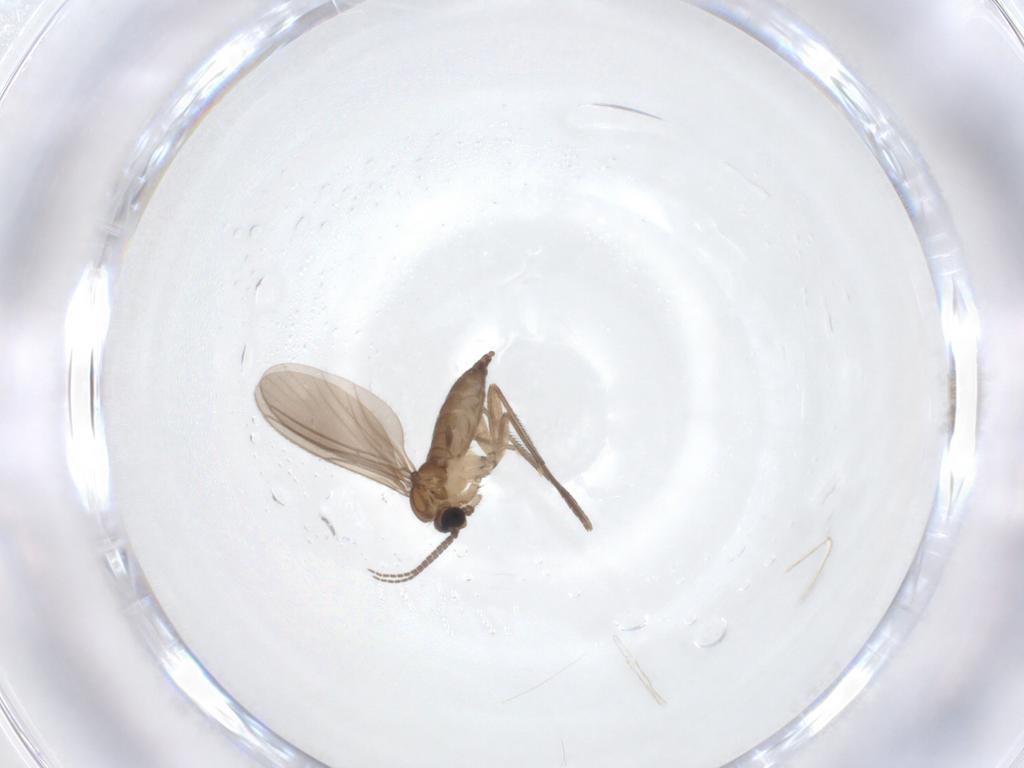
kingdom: Animalia
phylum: Arthropoda
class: Insecta
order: Diptera
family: Sciaridae
